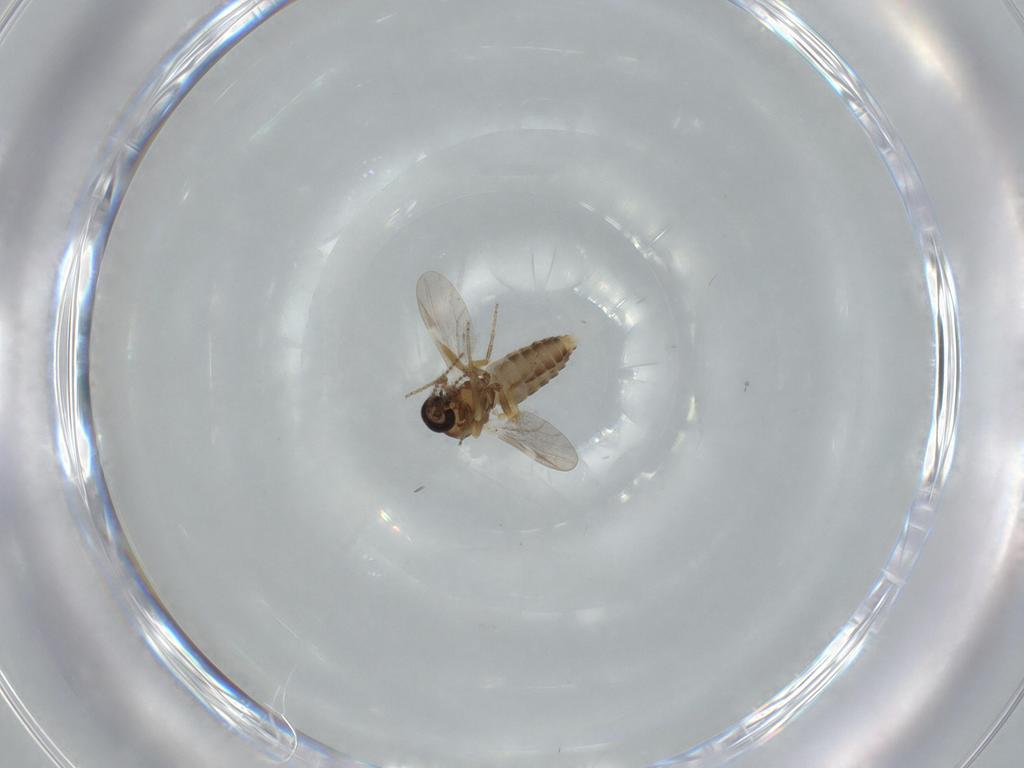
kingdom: Animalia
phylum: Arthropoda
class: Insecta
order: Diptera
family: Ceratopogonidae
